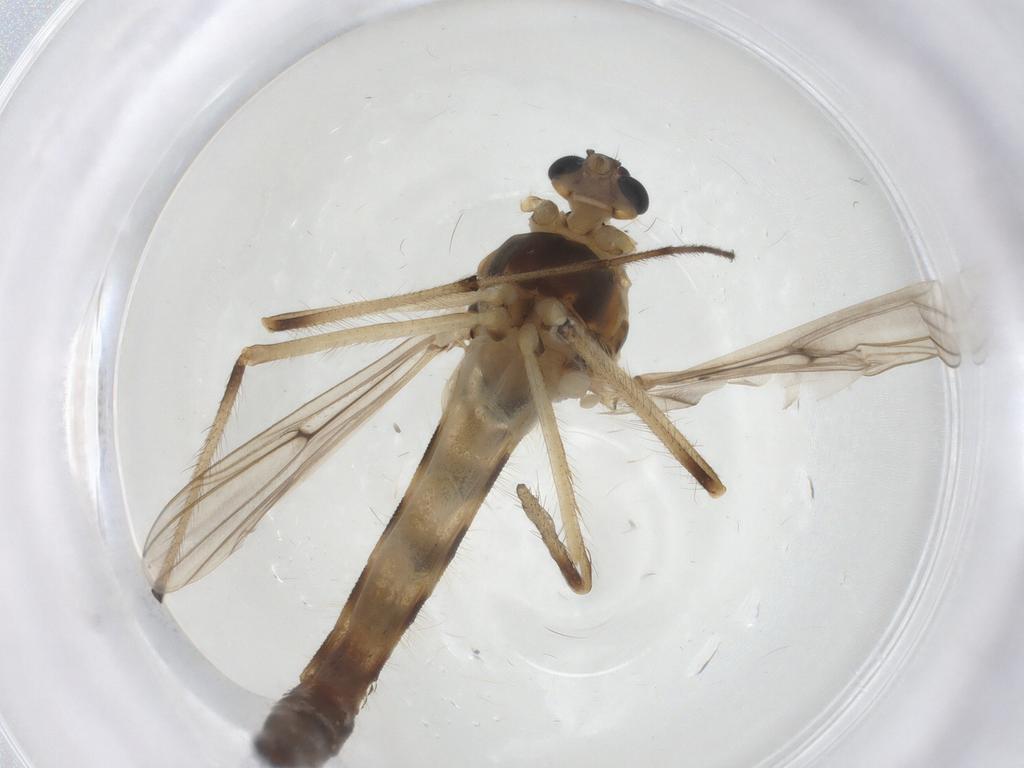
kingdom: Animalia
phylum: Arthropoda
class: Insecta
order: Diptera
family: Chironomidae
